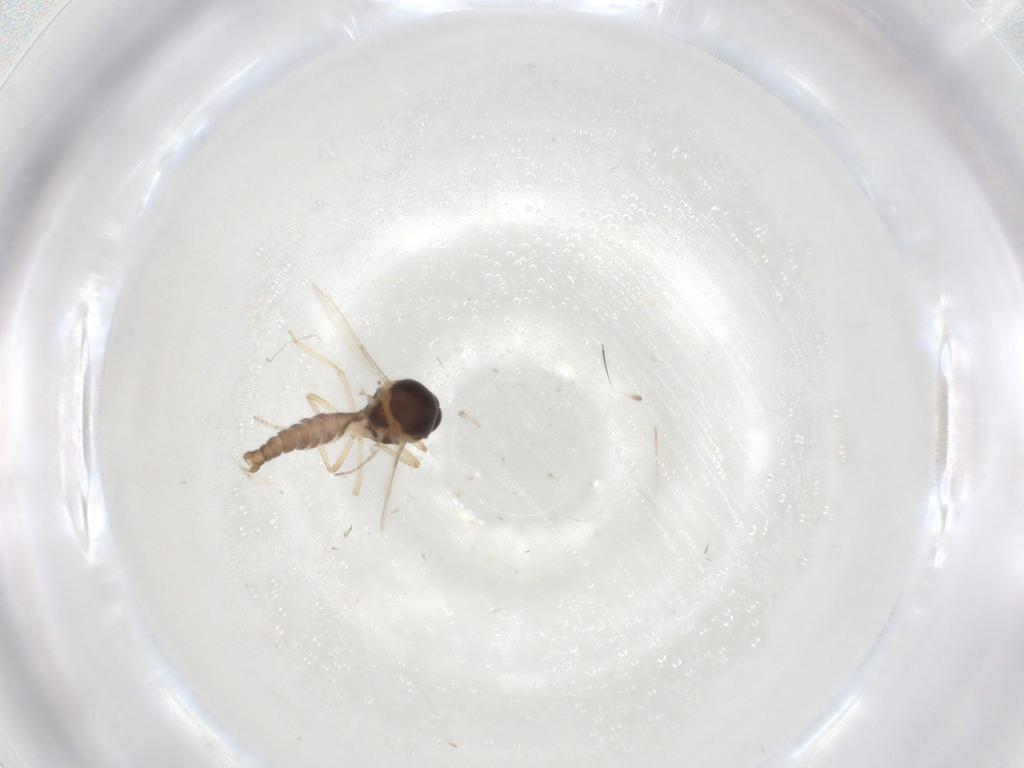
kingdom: Animalia
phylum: Arthropoda
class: Insecta
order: Diptera
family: Ceratopogonidae
